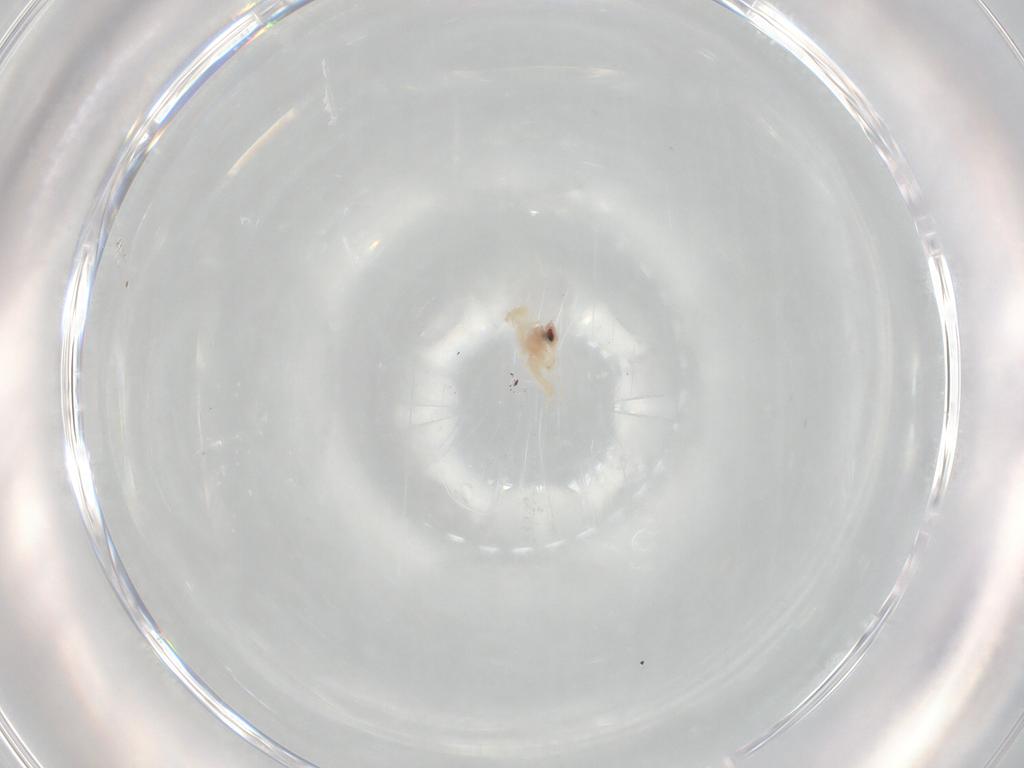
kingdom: Animalia
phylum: Arthropoda
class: Insecta
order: Hemiptera
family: Aleyrodidae
